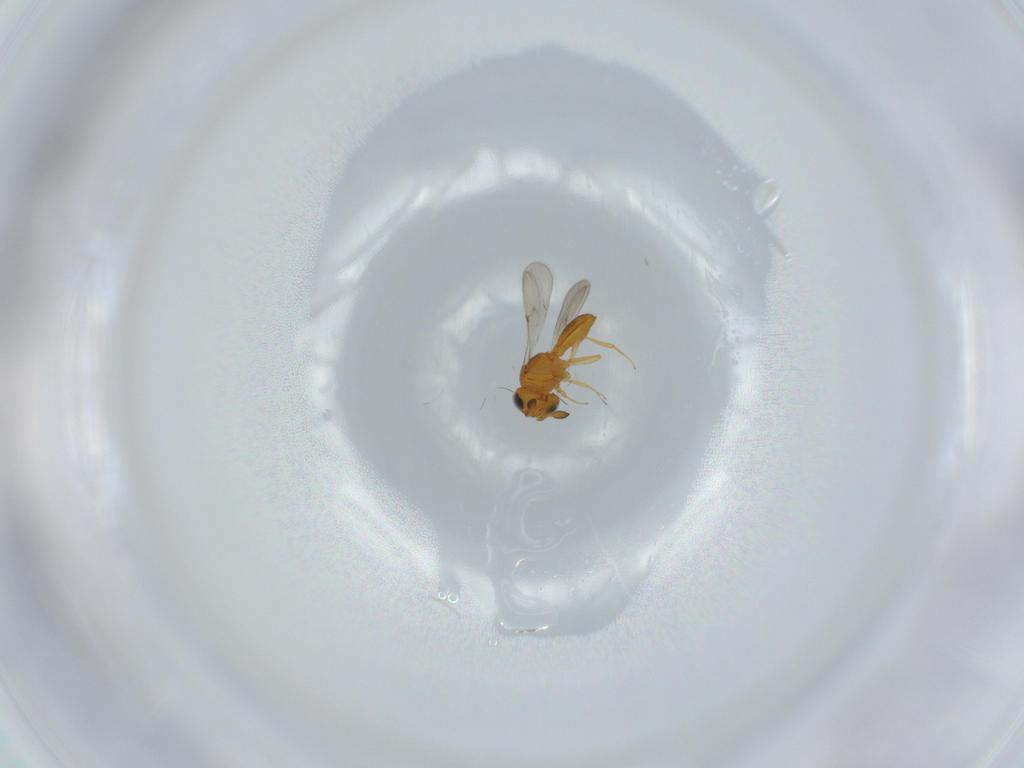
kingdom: Animalia
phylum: Arthropoda
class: Insecta
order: Hymenoptera
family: Scelionidae
